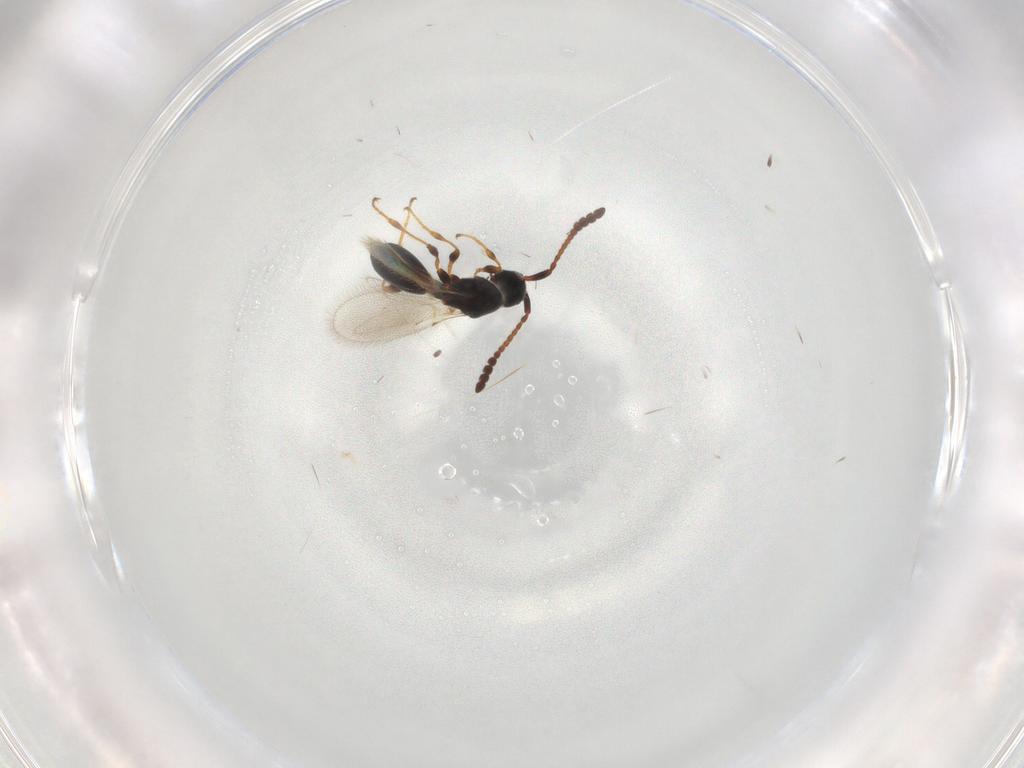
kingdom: Animalia
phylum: Arthropoda
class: Insecta
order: Hymenoptera
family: Diapriidae
